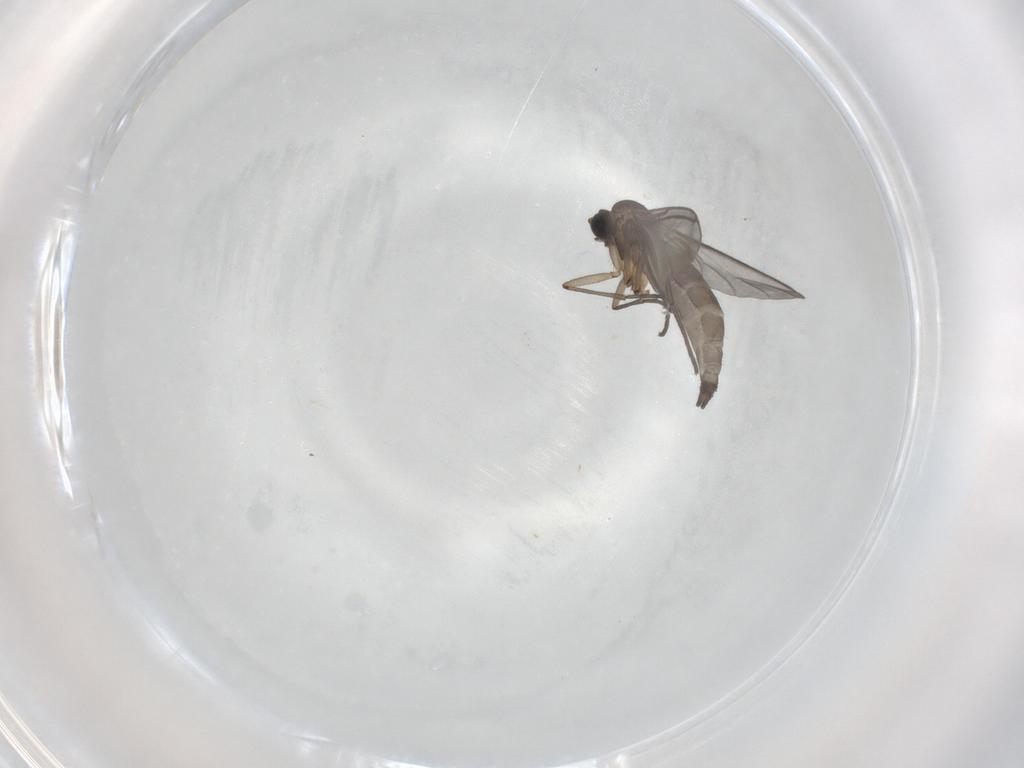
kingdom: Animalia
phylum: Arthropoda
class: Insecta
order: Diptera
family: Sciaridae
